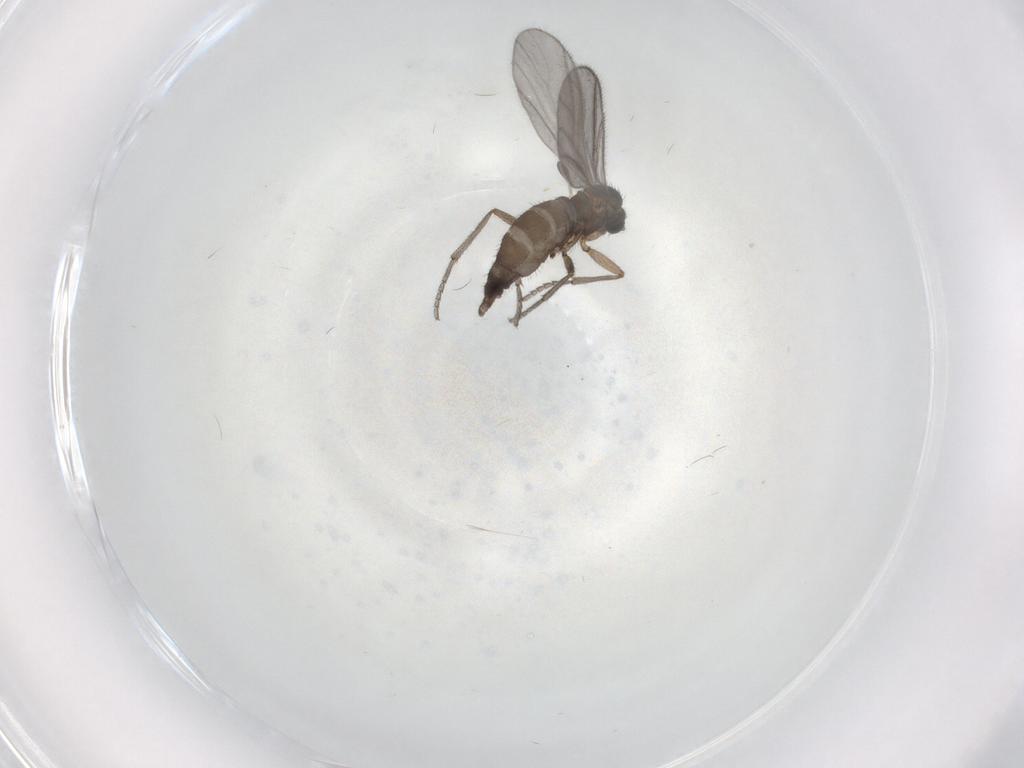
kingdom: Animalia
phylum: Arthropoda
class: Insecta
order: Diptera
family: Sciaridae
